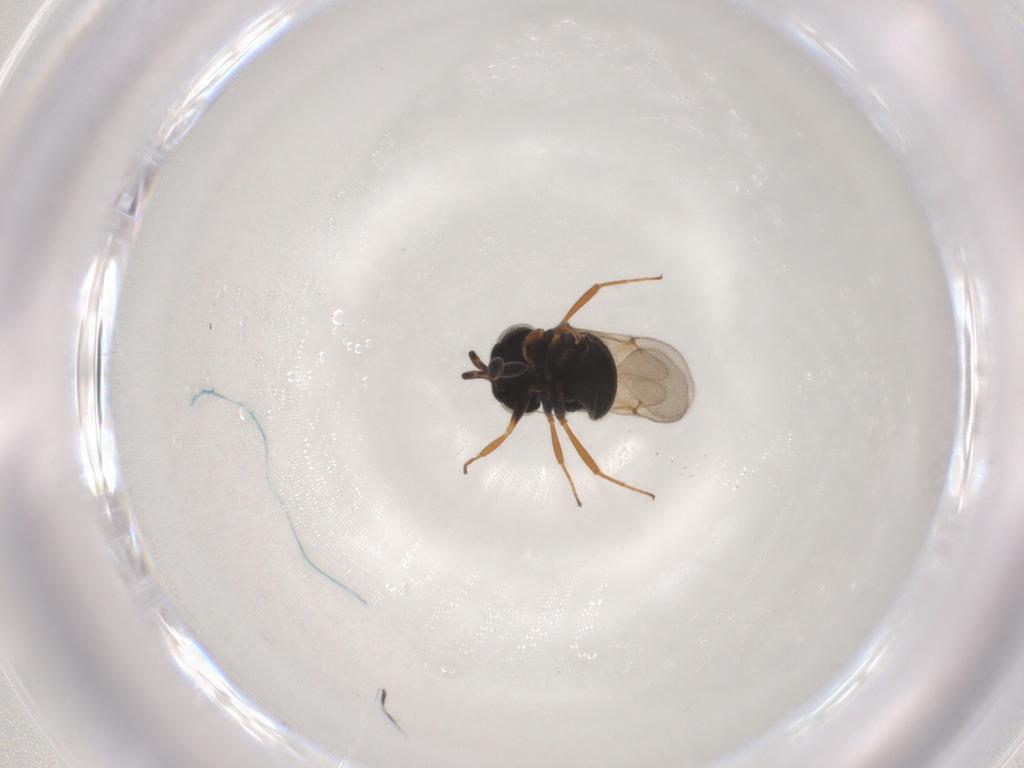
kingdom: Animalia
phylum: Arthropoda
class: Insecta
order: Hymenoptera
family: Scelionidae
